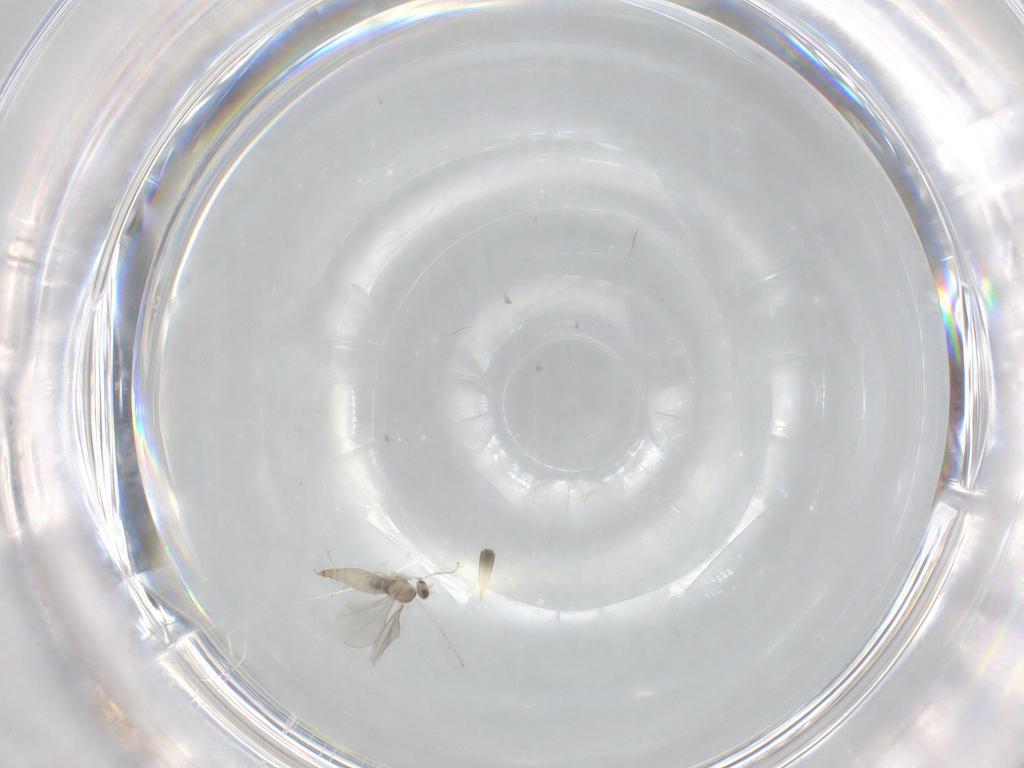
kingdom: Animalia
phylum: Arthropoda
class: Insecta
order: Diptera
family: Cecidomyiidae
